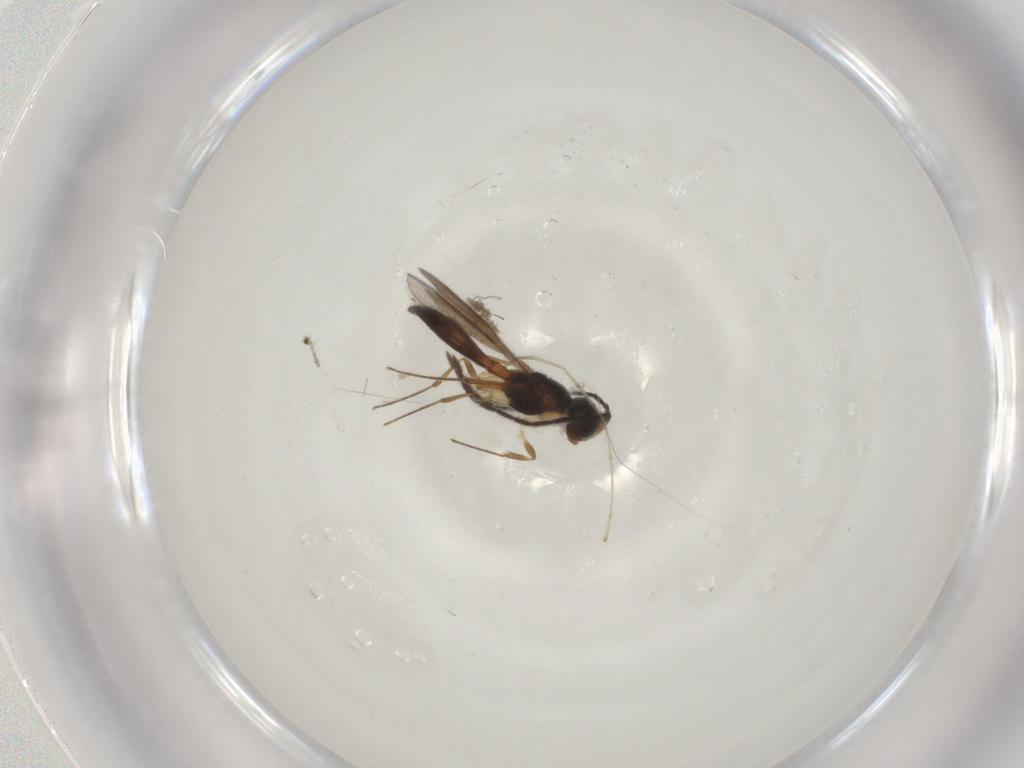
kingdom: Animalia
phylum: Arthropoda
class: Insecta
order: Hymenoptera
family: Scelionidae
